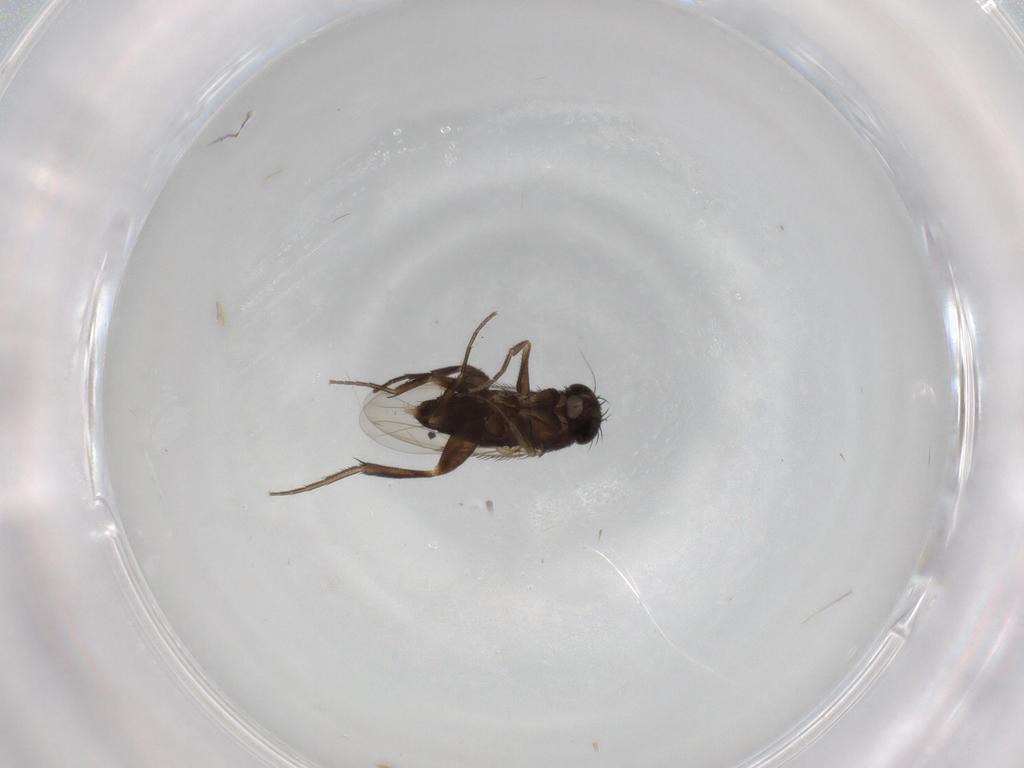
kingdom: Animalia
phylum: Arthropoda
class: Insecta
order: Diptera
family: Phoridae
